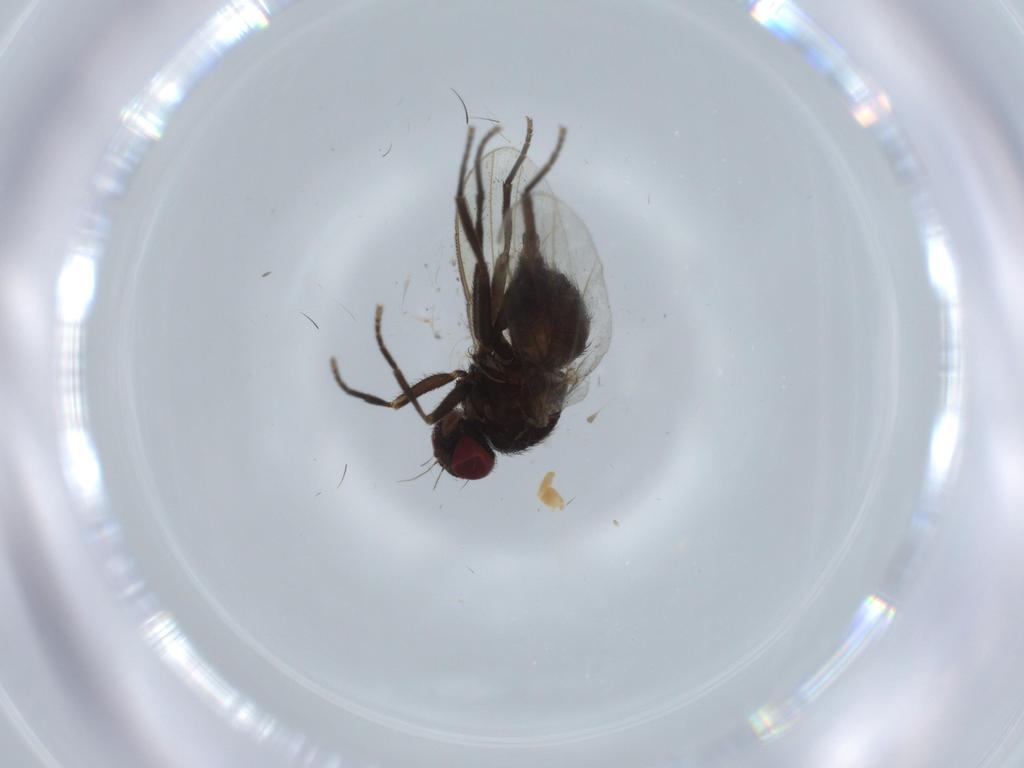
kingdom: Animalia
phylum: Arthropoda
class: Insecta
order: Diptera
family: Agromyzidae
